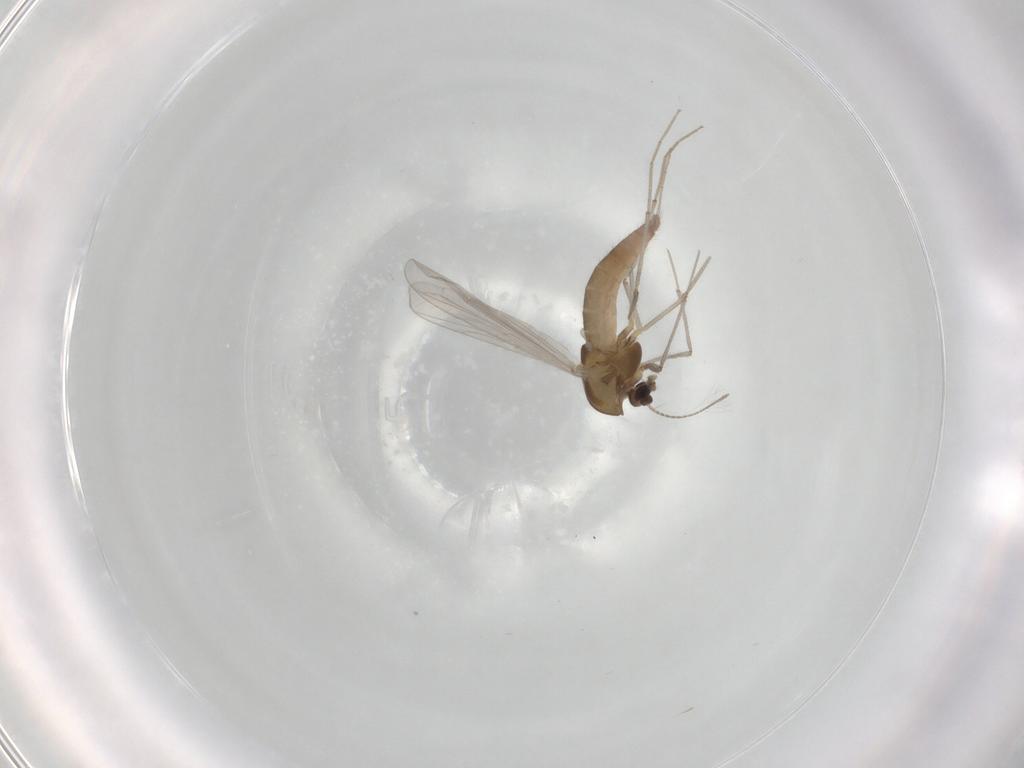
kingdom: Animalia
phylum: Arthropoda
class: Insecta
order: Diptera
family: Chironomidae
